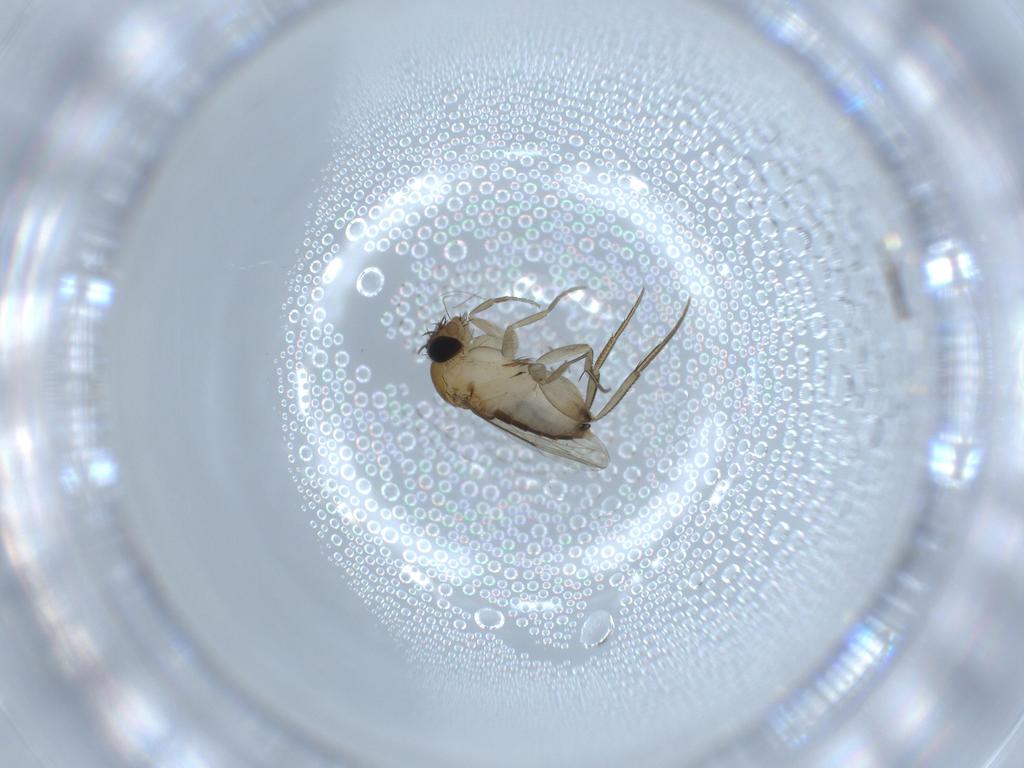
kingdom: Animalia
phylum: Arthropoda
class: Insecta
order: Diptera
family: Phoridae
